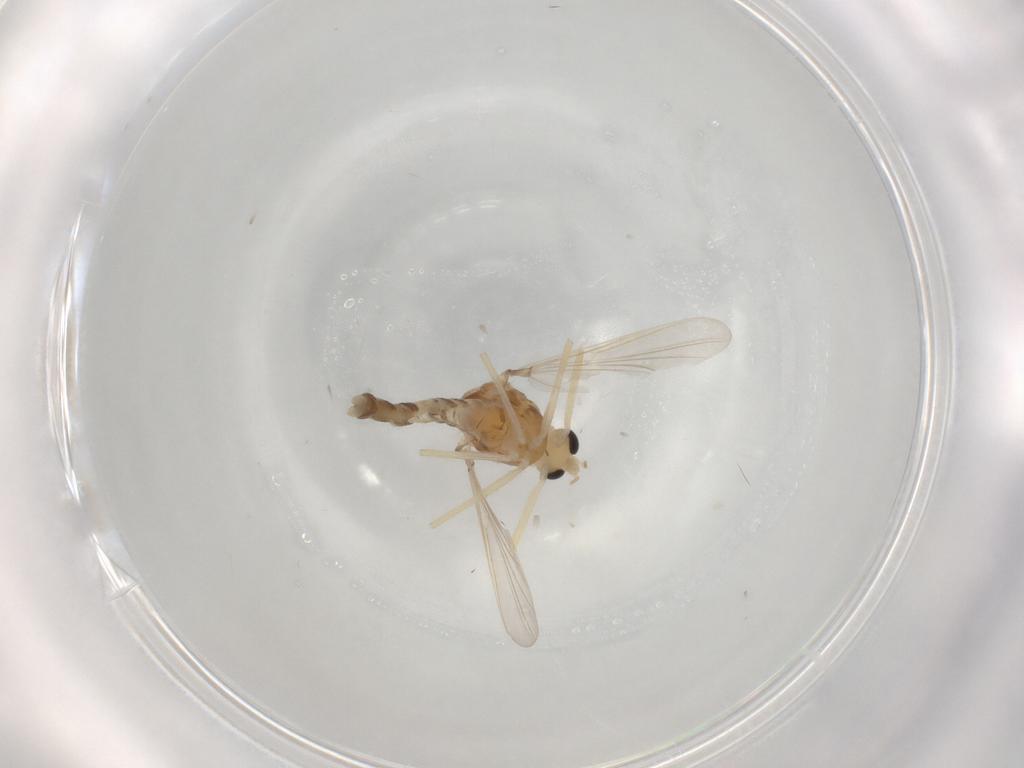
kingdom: Animalia
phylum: Arthropoda
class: Insecta
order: Diptera
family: Chironomidae
